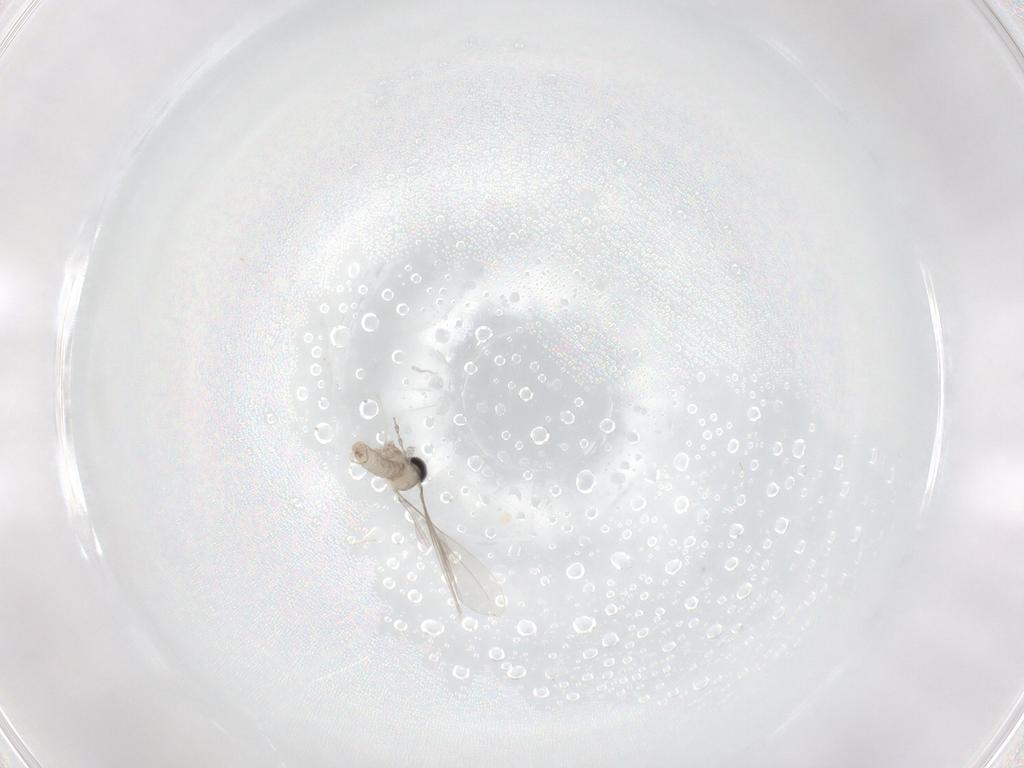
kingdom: Animalia
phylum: Arthropoda
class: Insecta
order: Diptera
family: Cecidomyiidae
